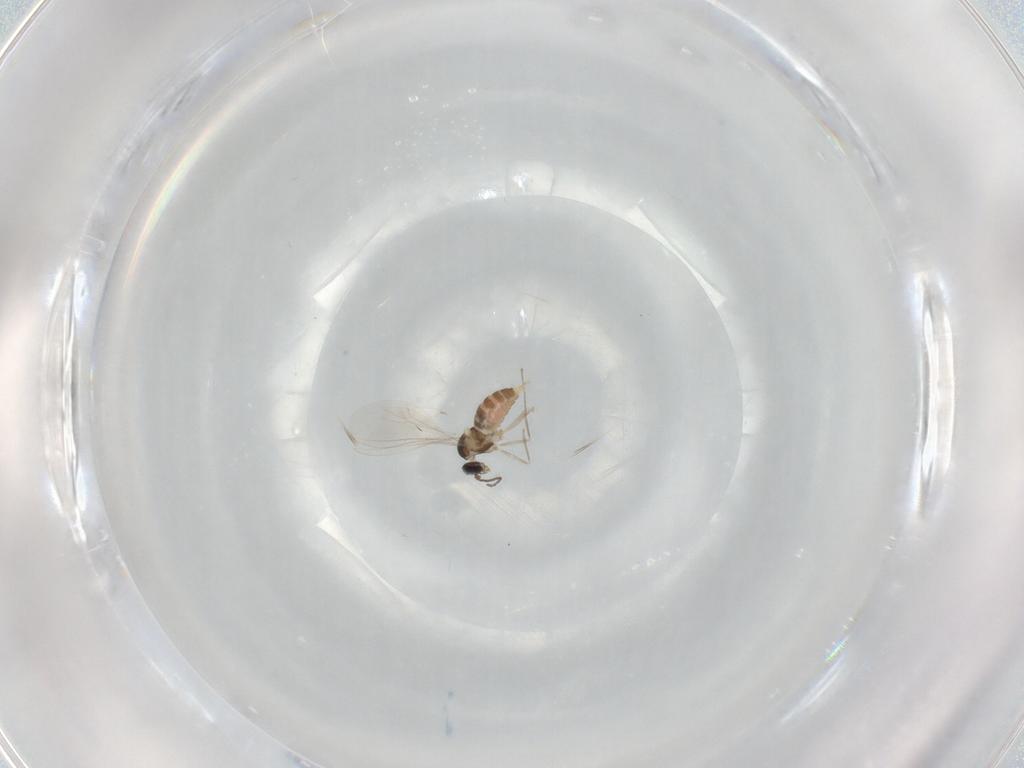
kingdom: Animalia
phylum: Arthropoda
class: Insecta
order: Diptera
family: Cecidomyiidae
